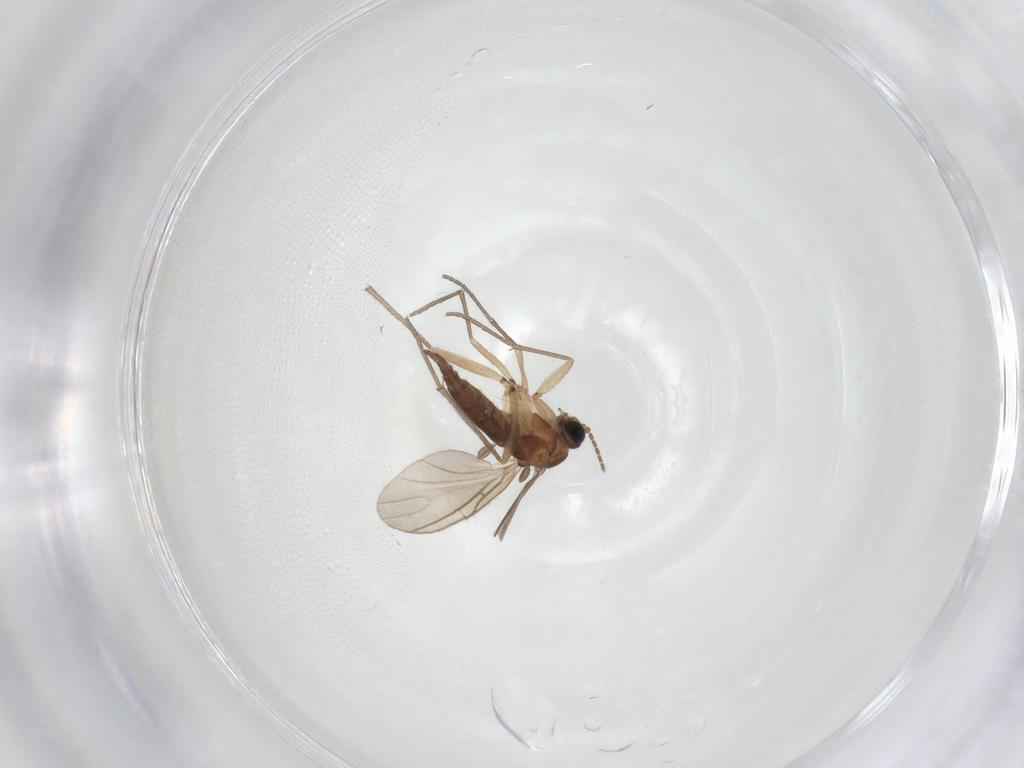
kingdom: Animalia
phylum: Arthropoda
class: Insecta
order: Diptera
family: Sciaridae
